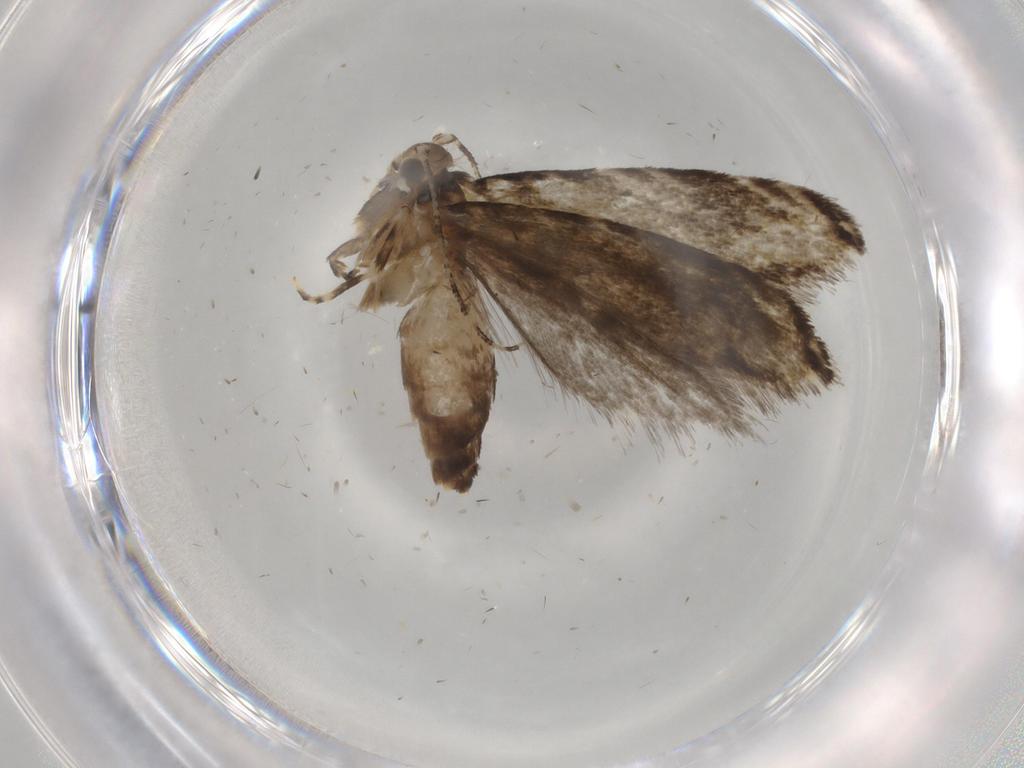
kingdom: Animalia
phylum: Arthropoda
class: Insecta
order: Lepidoptera
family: Tineidae
